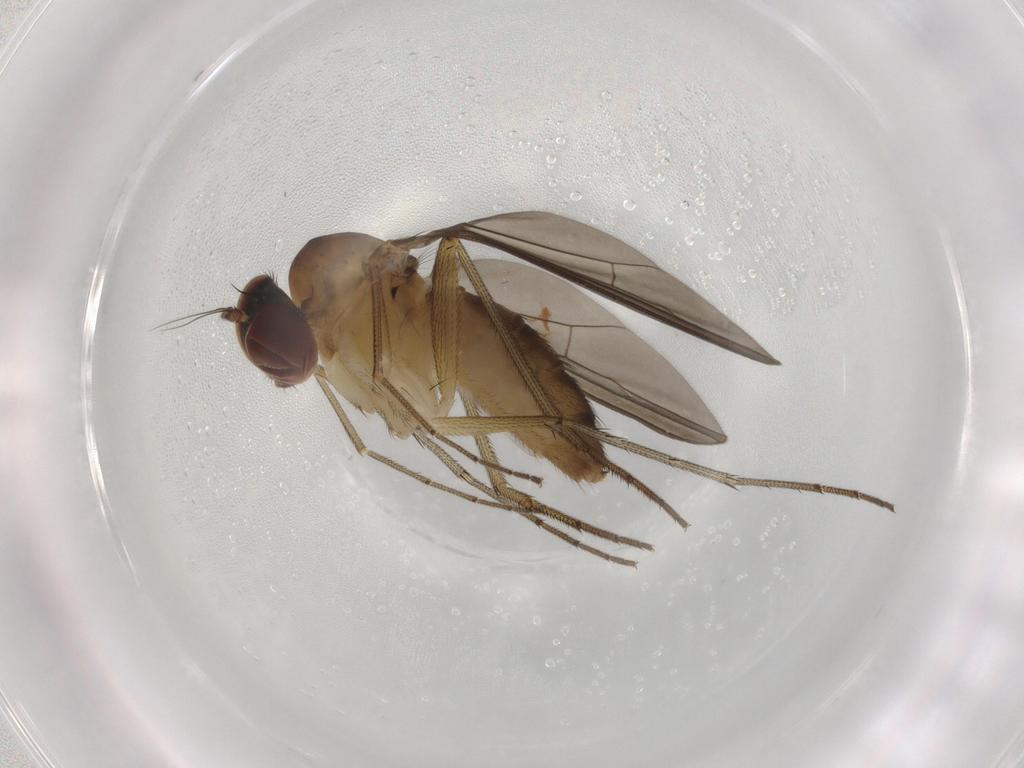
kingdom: Animalia
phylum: Arthropoda
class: Insecta
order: Diptera
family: Dolichopodidae
